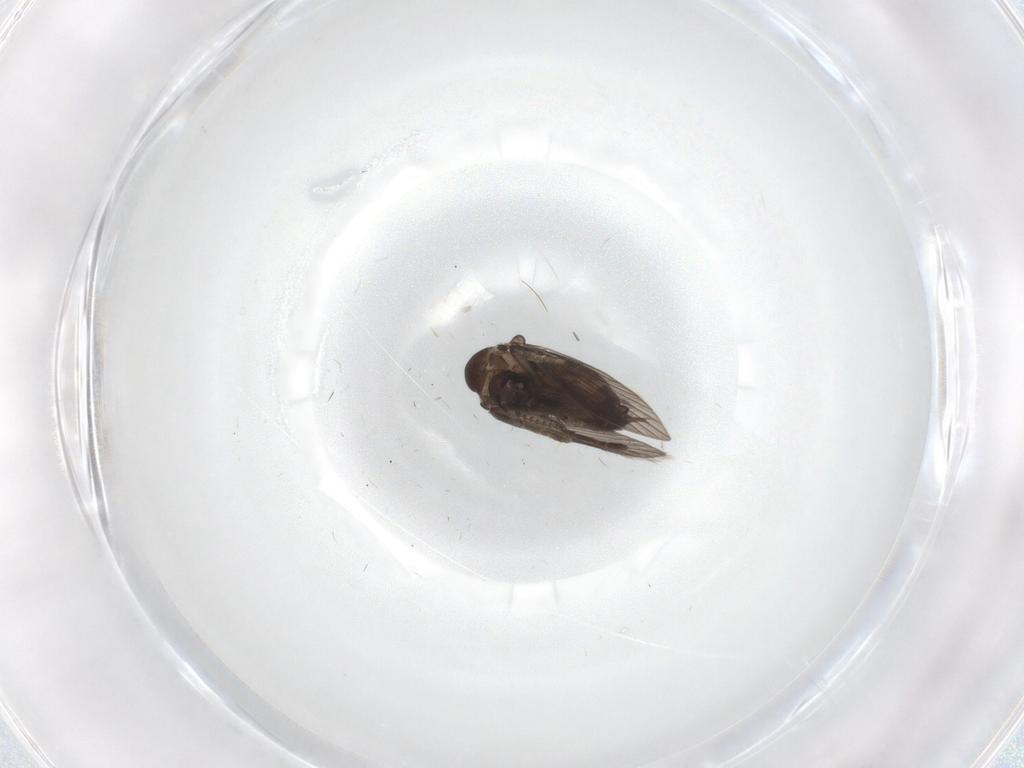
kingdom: Animalia
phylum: Arthropoda
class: Insecta
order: Diptera
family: Psychodidae
